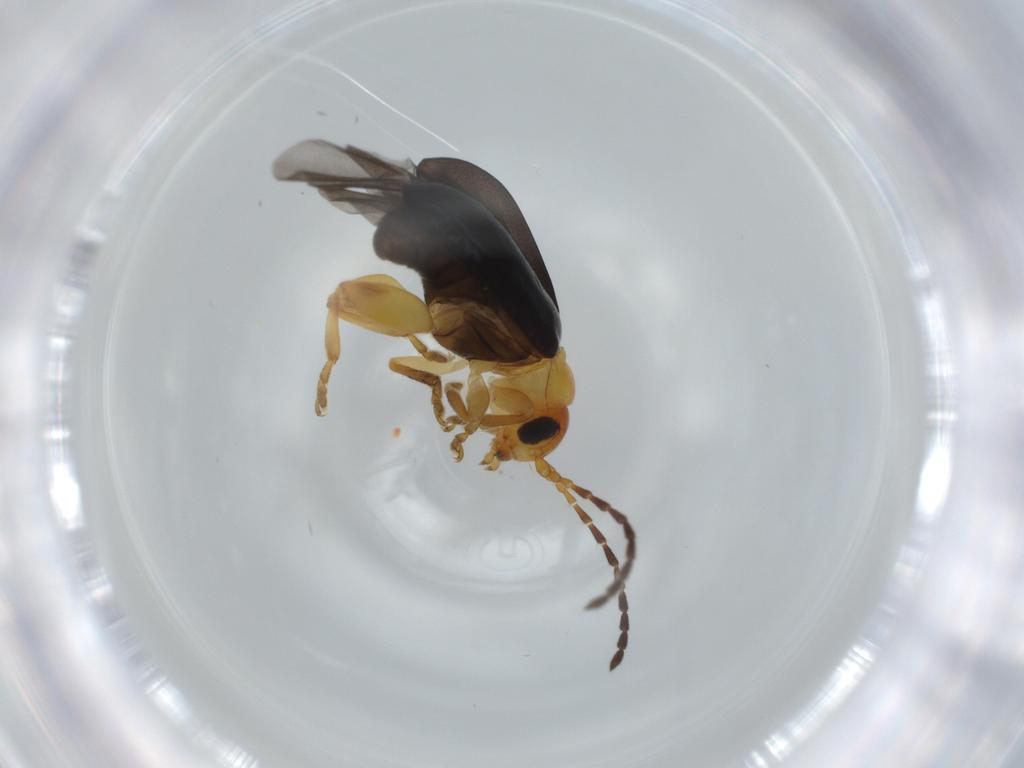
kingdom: Animalia
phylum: Arthropoda
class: Insecta
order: Coleoptera
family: Chrysomelidae
